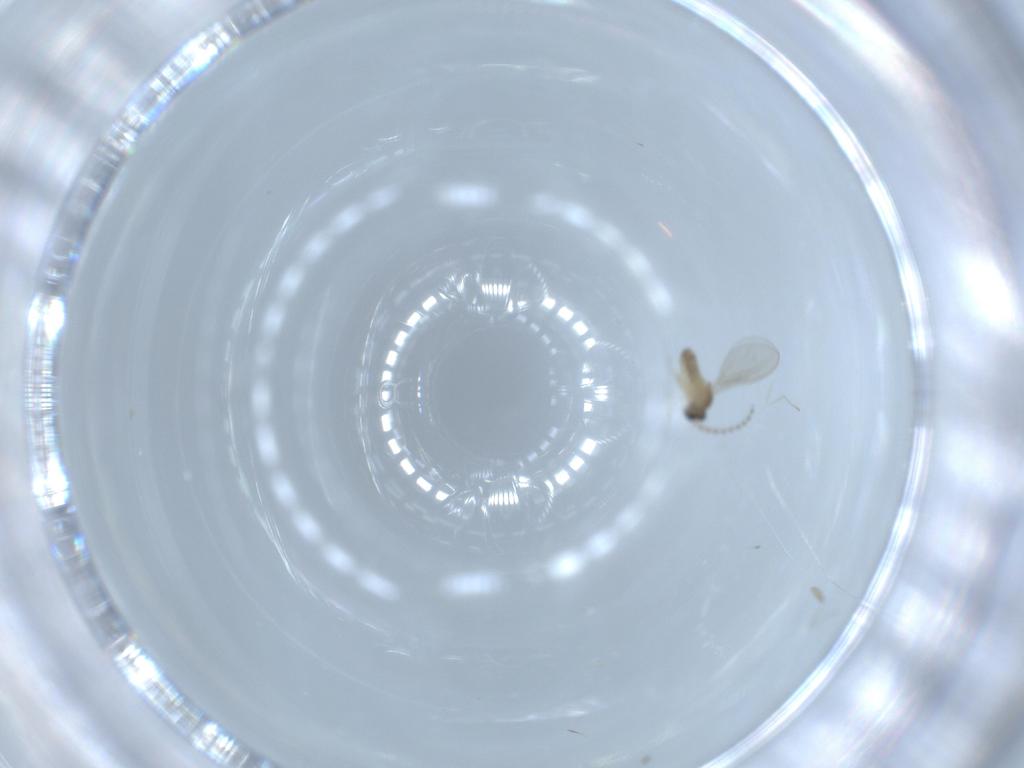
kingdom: Animalia
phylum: Arthropoda
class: Insecta
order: Diptera
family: Cecidomyiidae
